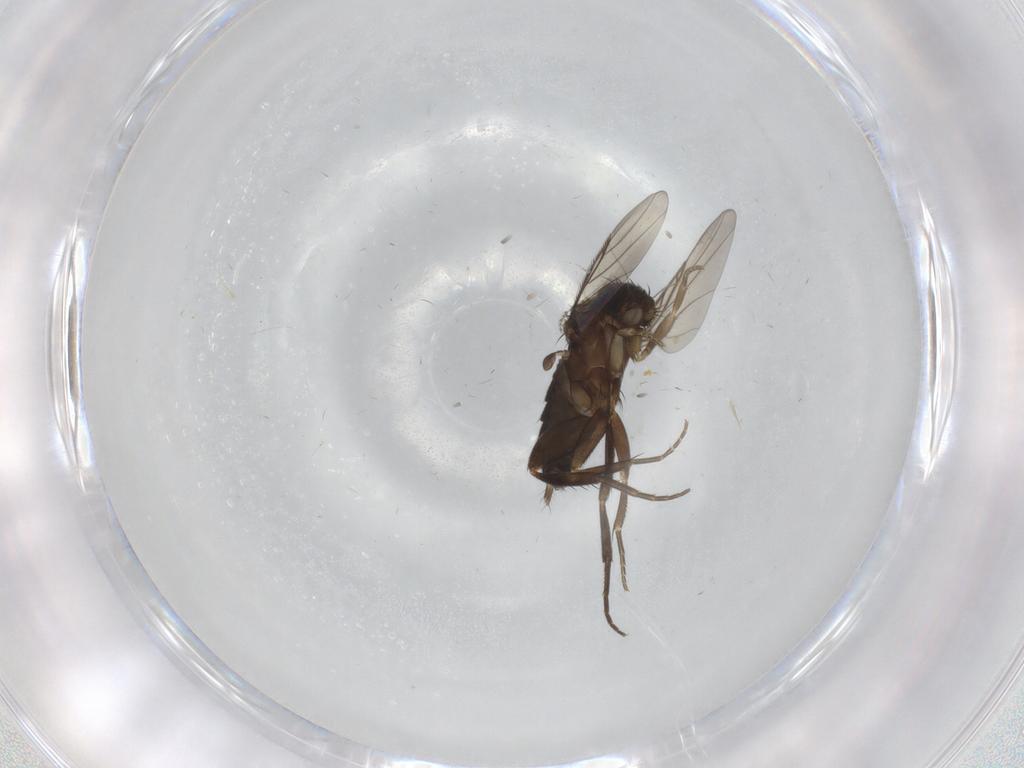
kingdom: Animalia
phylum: Arthropoda
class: Insecta
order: Diptera
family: Phoridae
